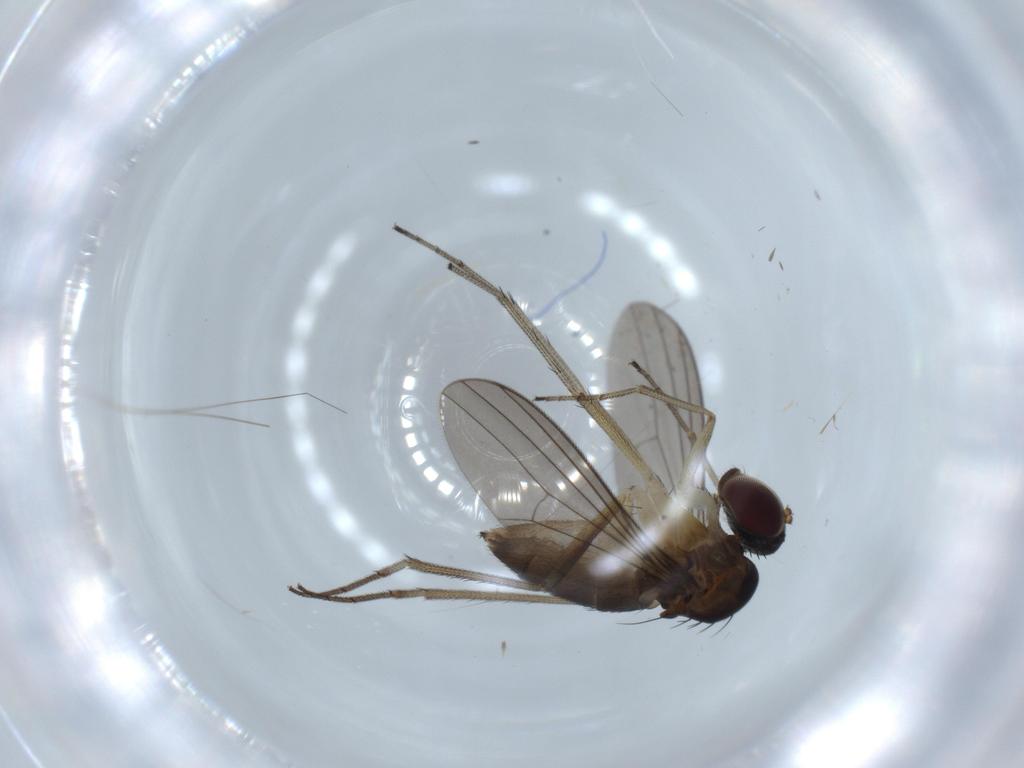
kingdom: Animalia
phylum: Arthropoda
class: Insecta
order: Diptera
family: Dolichopodidae
